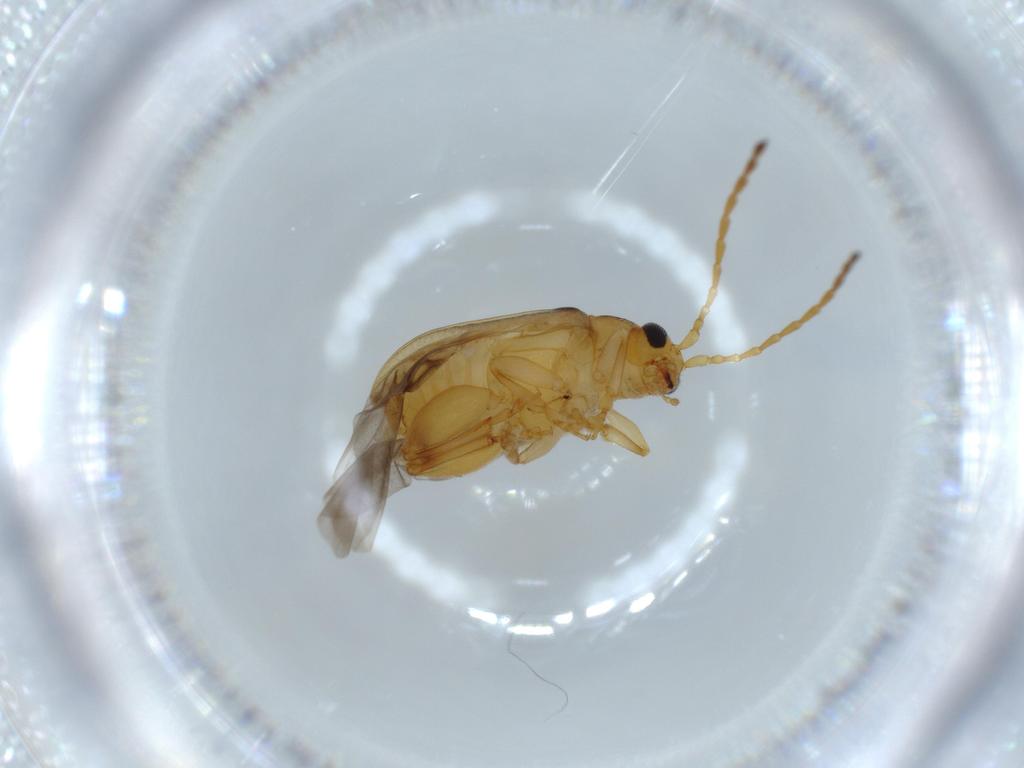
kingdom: Animalia
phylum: Arthropoda
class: Insecta
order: Coleoptera
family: Chrysomelidae
